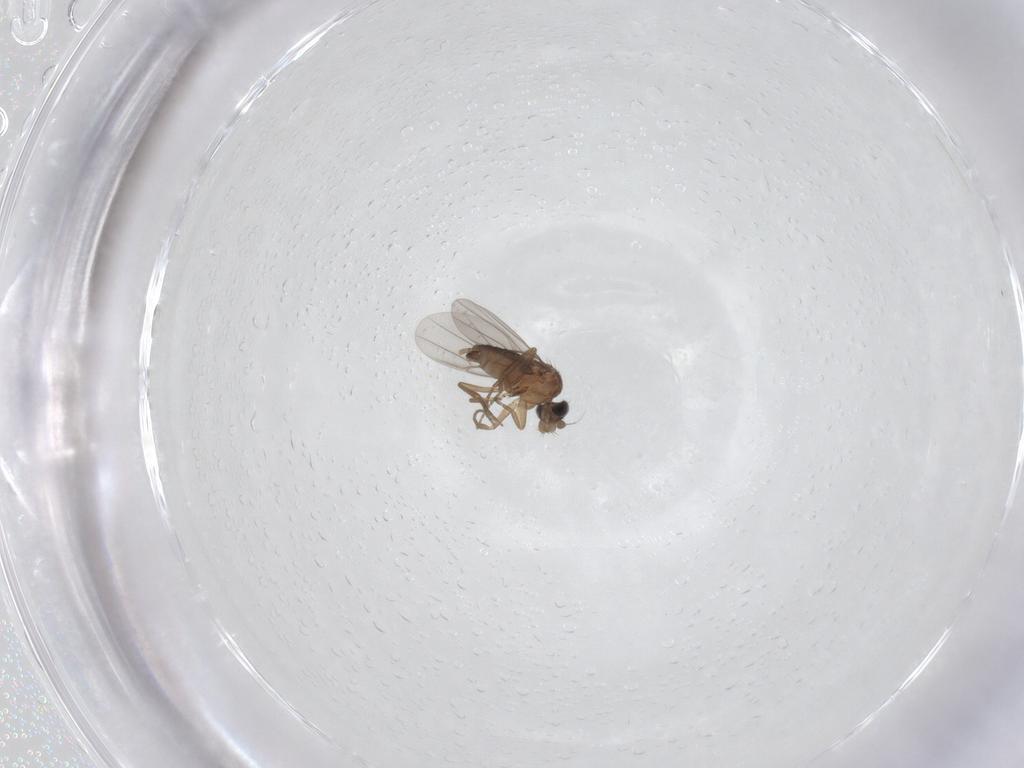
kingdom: Animalia
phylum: Arthropoda
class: Insecta
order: Diptera
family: Phoridae
